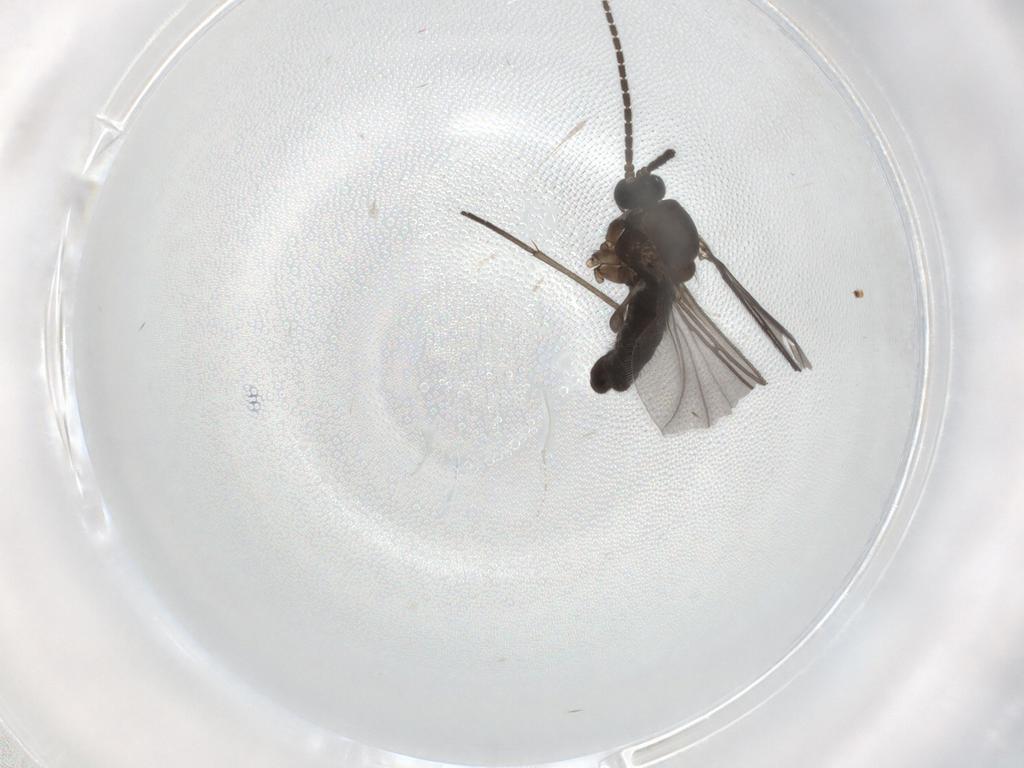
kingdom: Animalia
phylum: Arthropoda
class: Insecta
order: Diptera
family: Sciaridae
